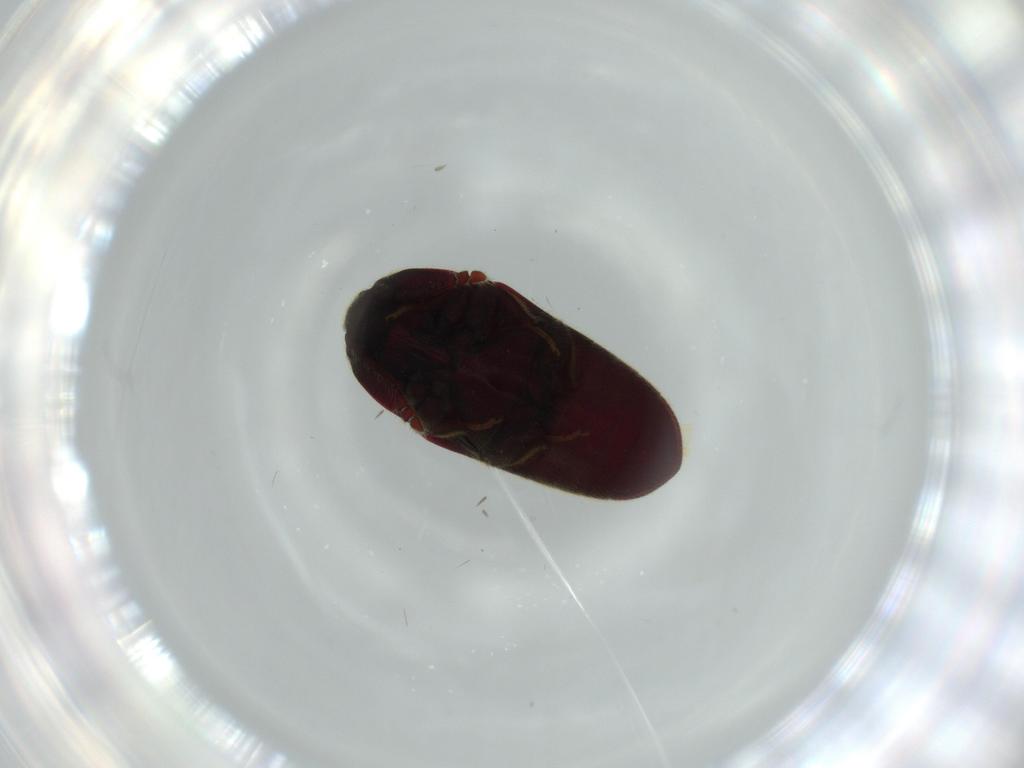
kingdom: Animalia
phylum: Arthropoda
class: Insecta
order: Coleoptera
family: Throscidae
